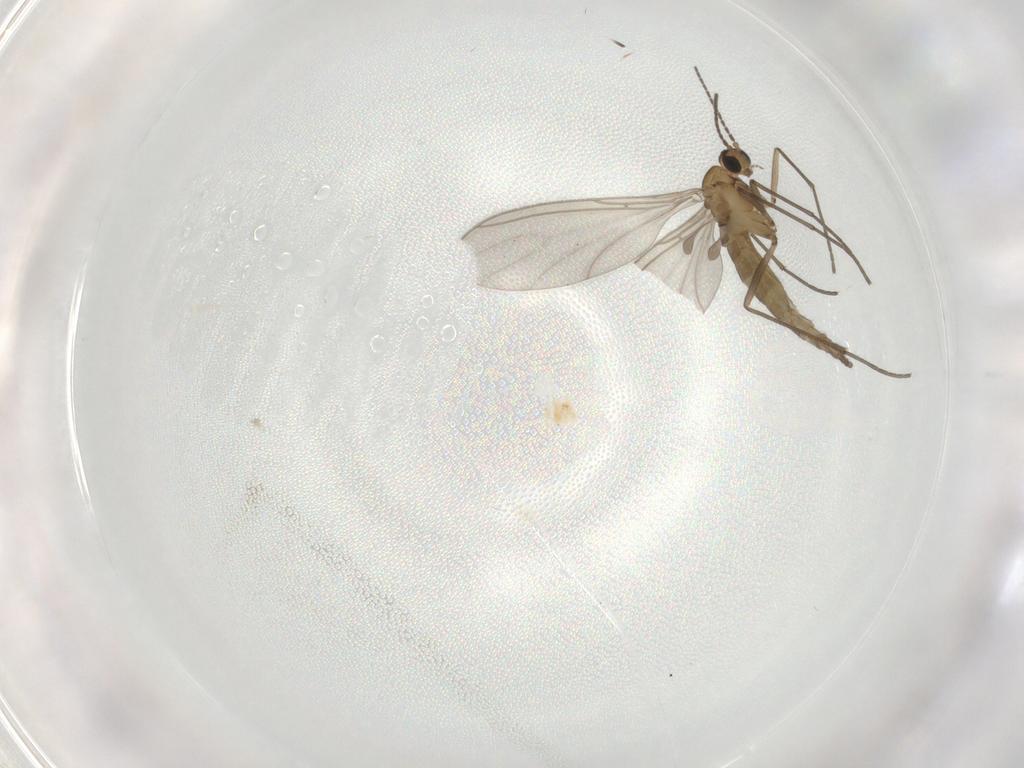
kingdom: Animalia
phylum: Arthropoda
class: Insecta
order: Diptera
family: Sciaridae
